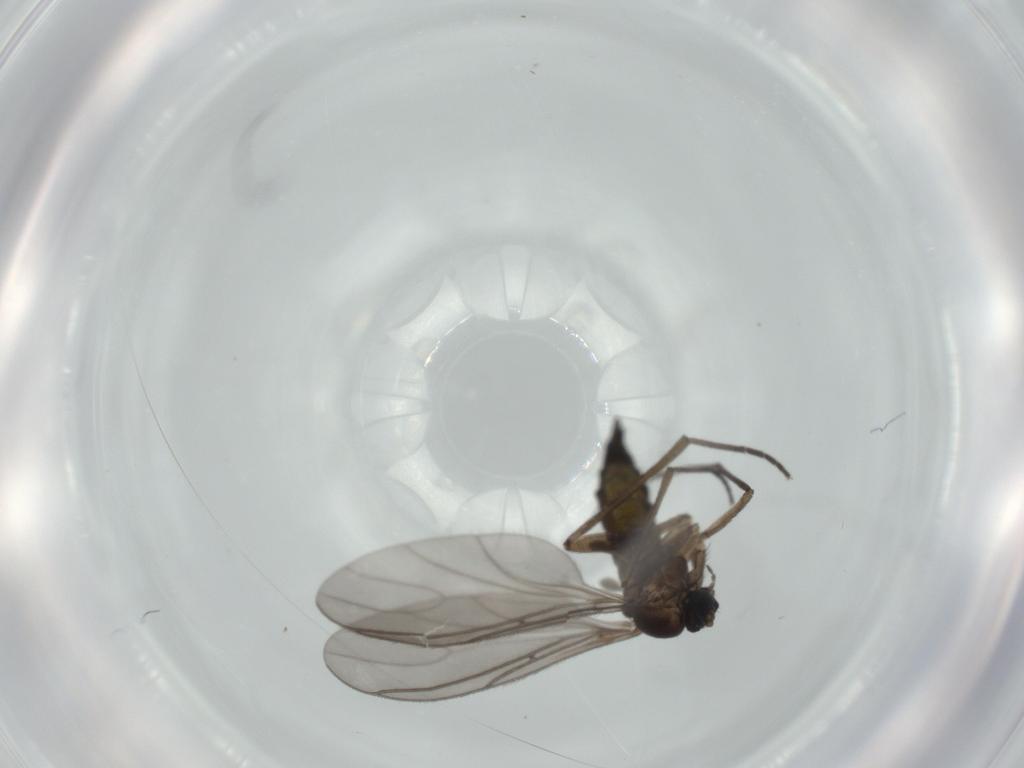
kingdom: Animalia
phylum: Arthropoda
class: Insecta
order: Diptera
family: Sciaridae
